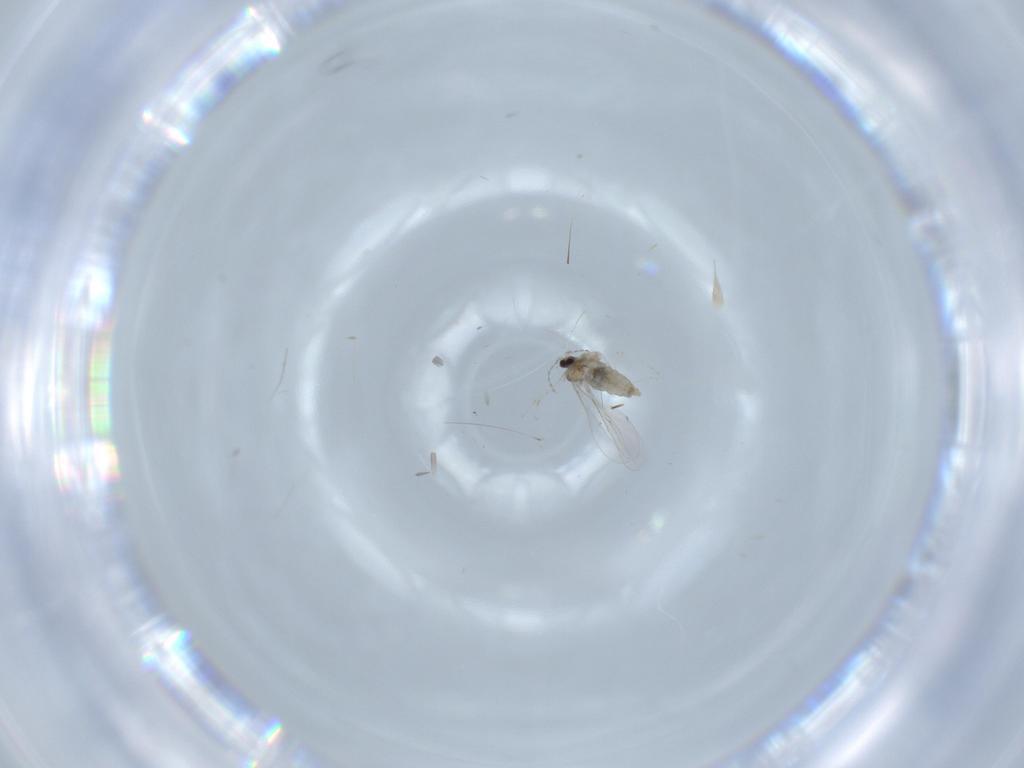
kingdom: Animalia
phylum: Arthropoda
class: Insecta
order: Diptera
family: Cecidomyiidae
